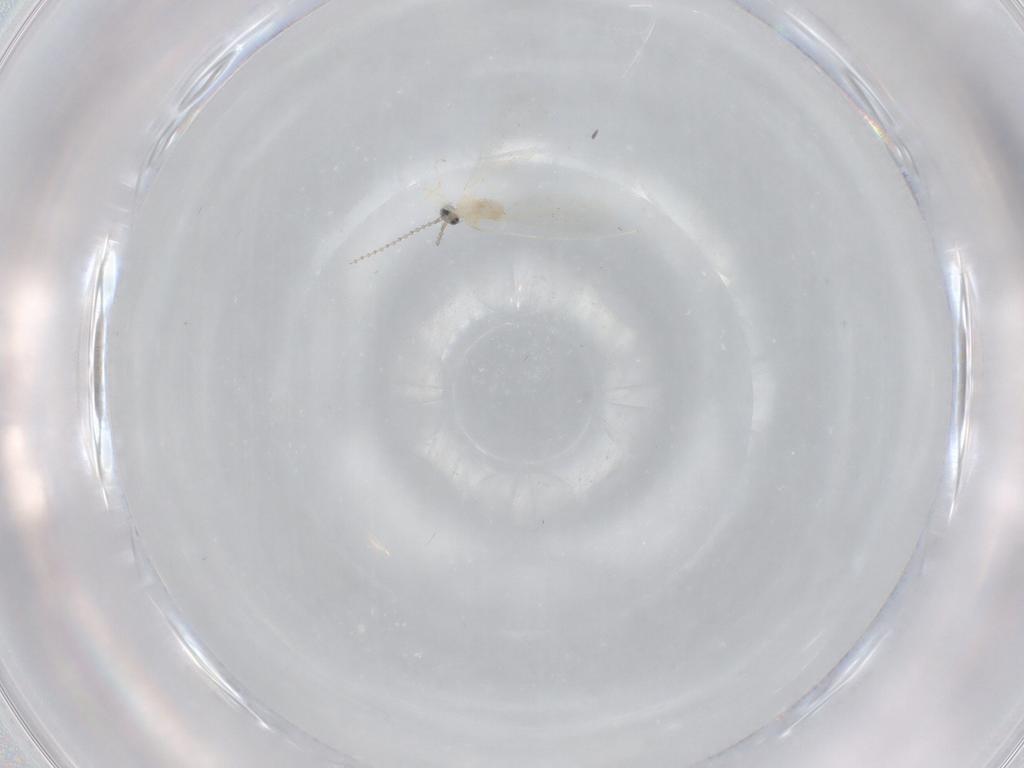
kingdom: Animalia
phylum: Arthropoda
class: Insecta
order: Diptera
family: Cecidomyiidae
